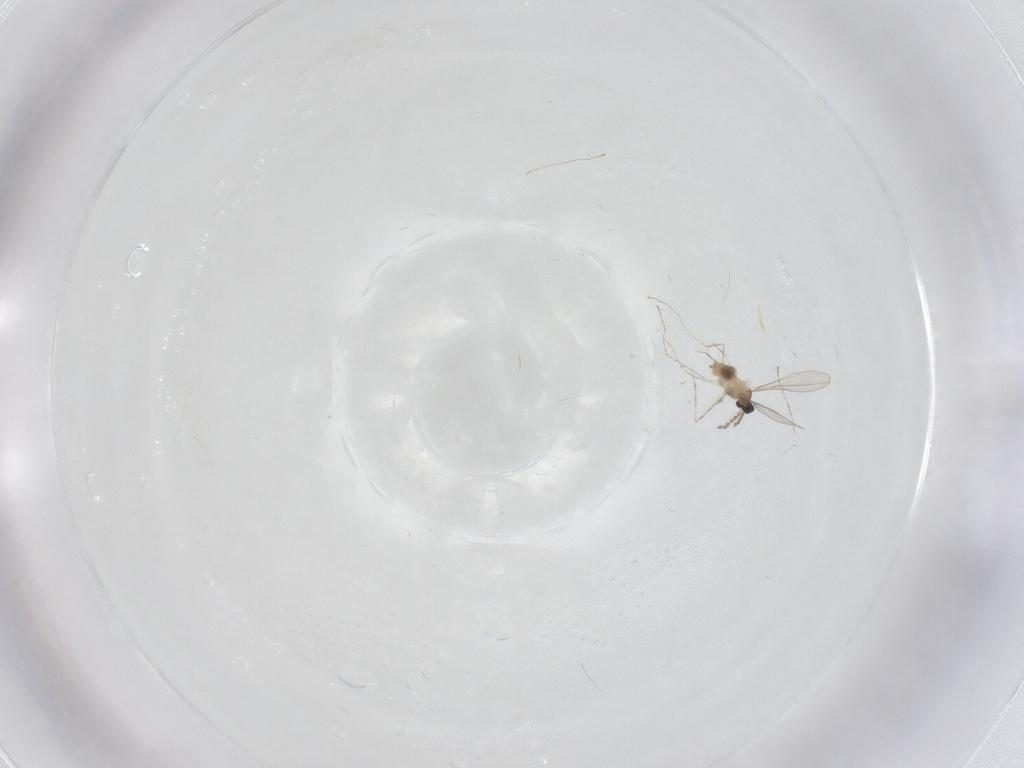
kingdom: Animalia
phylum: Arthropoda
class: Insecta
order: Diptera
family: Cecidomyiidae
